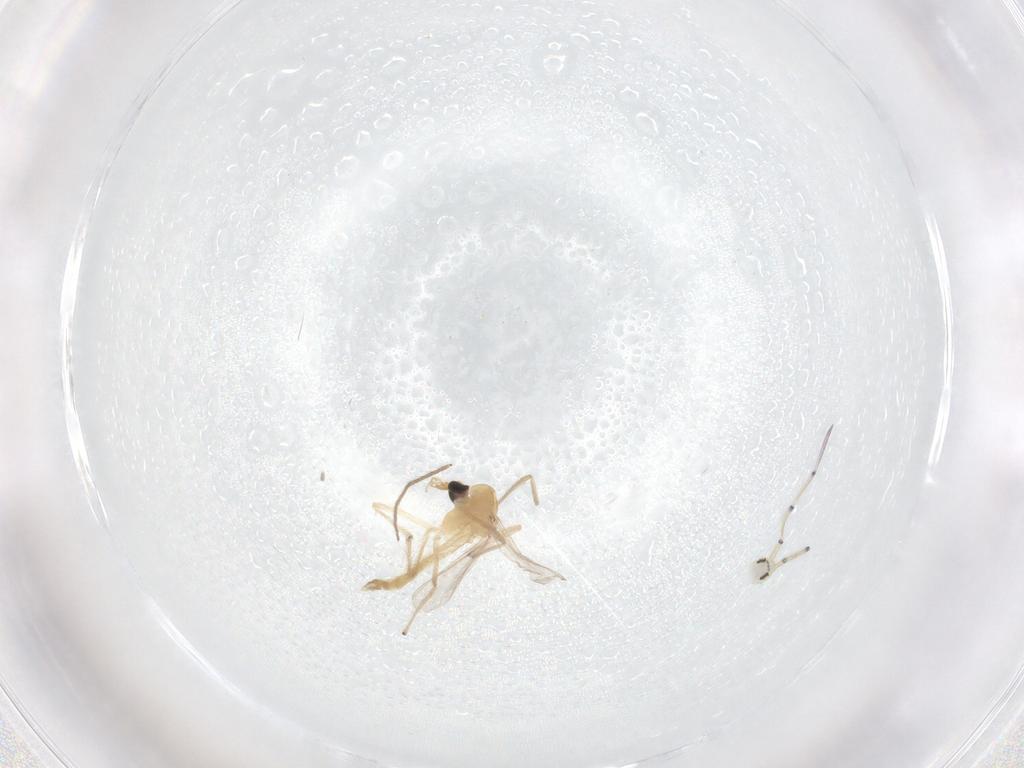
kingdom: Animalia
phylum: Arthropoda
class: Insecta
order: Diptera
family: Chironomidae
